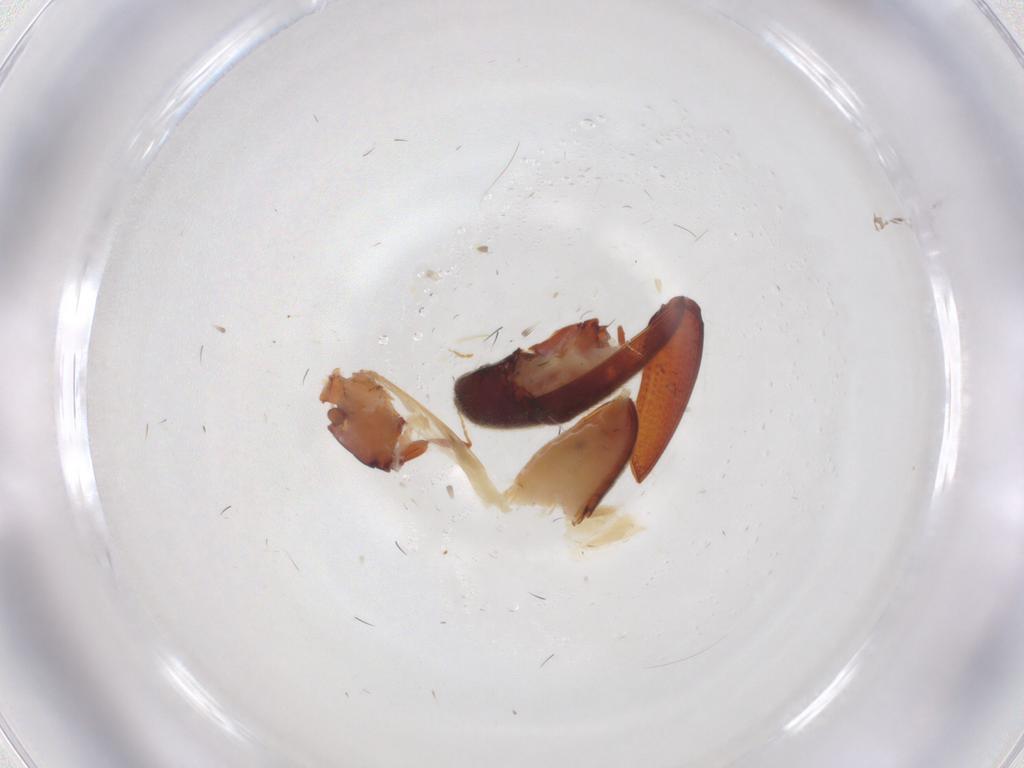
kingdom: Animalia
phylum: Arthropoda
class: Insecta
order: Coleoptera
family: Throscidae
